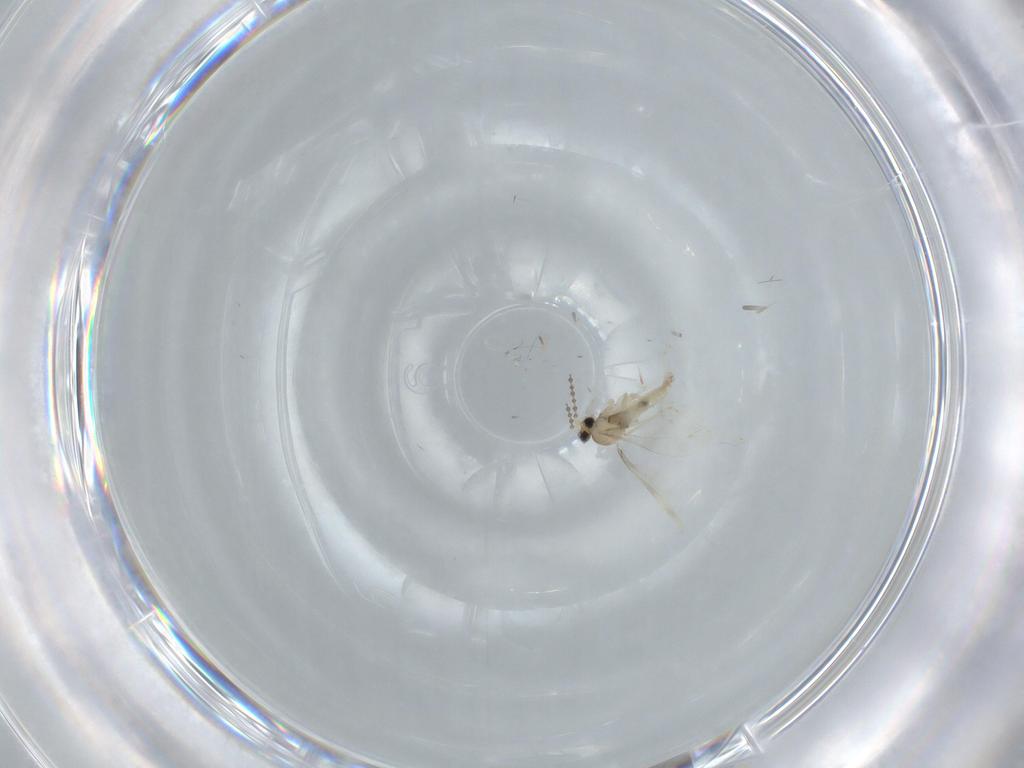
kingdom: Animalia
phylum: Arthropoda
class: Insecta
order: Diptera
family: Cecidomyiidae
